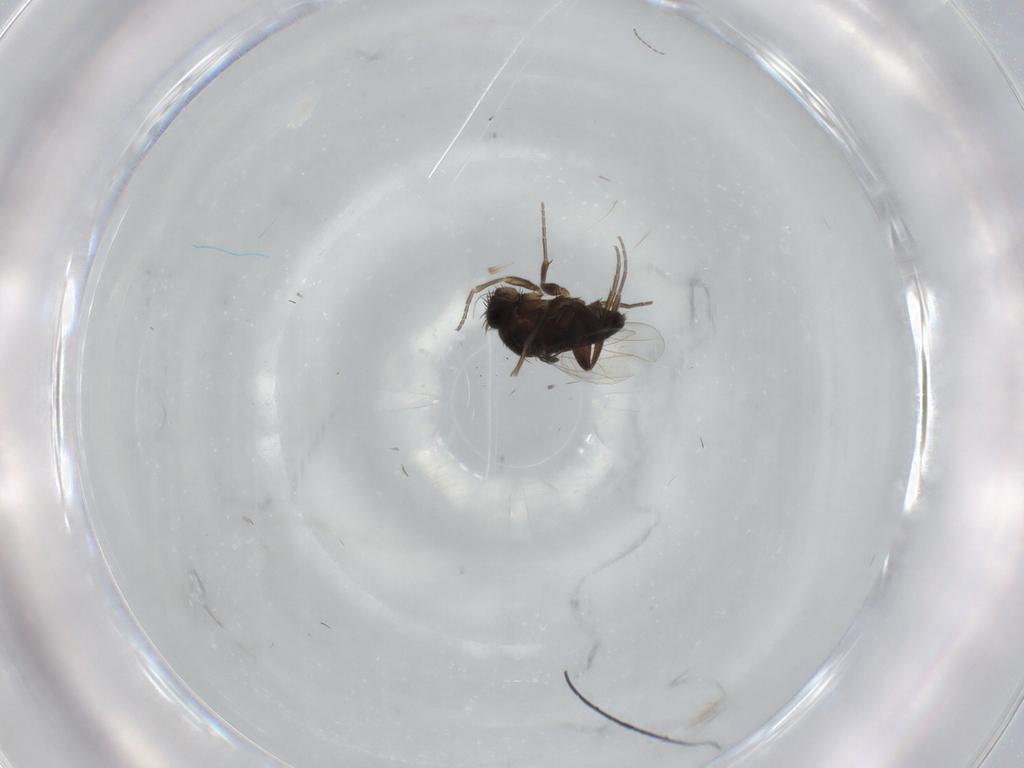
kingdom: Animalia
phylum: Arthropoda
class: Insecta
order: Diptera
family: Phoridae
